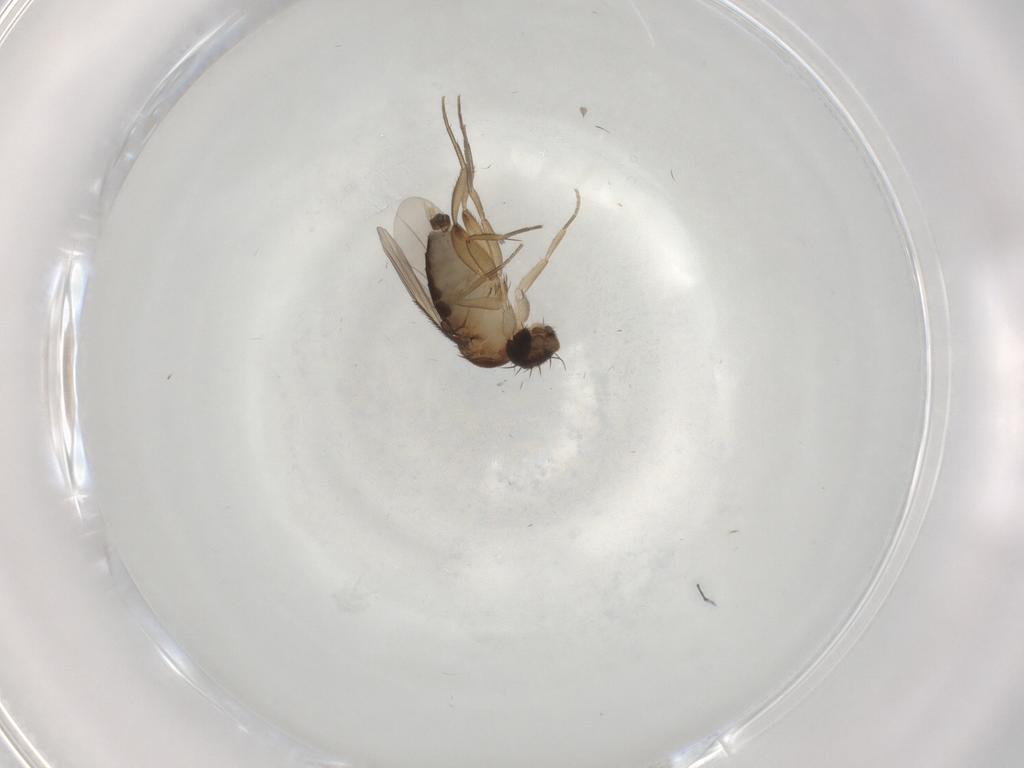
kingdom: Animalia
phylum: Arthropoda
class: Insecta
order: Diptera
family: Phoridae
